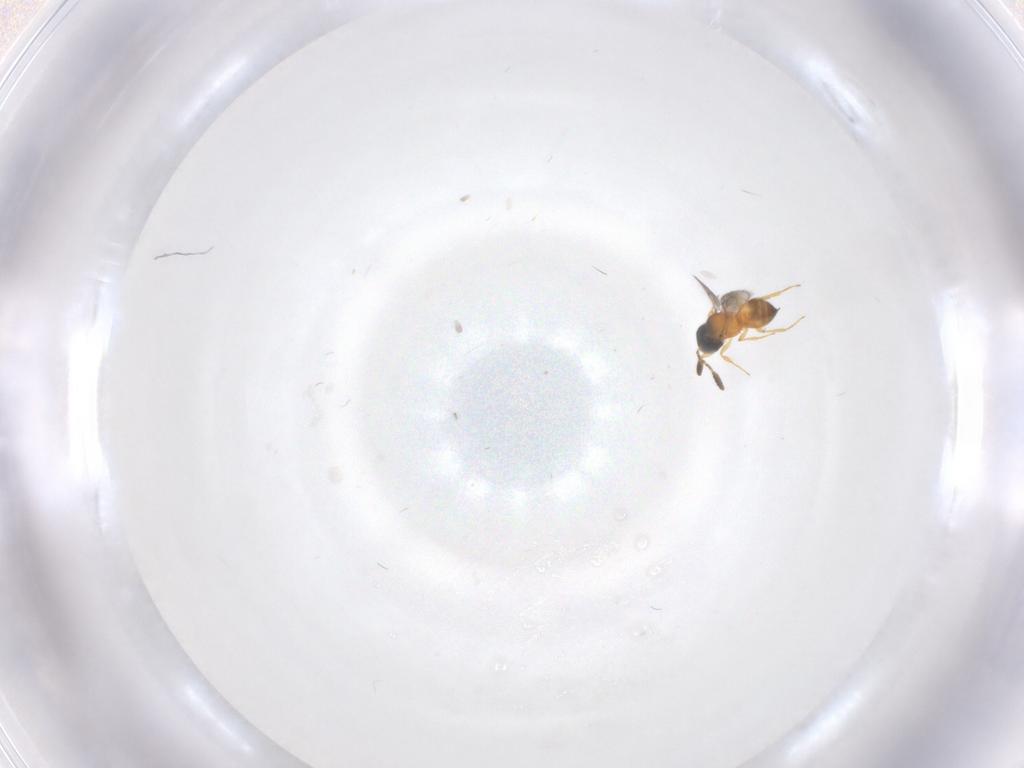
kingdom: Animalia
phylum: Arthropoda
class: Insecta
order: Hymenoptera
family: Scelionidae
